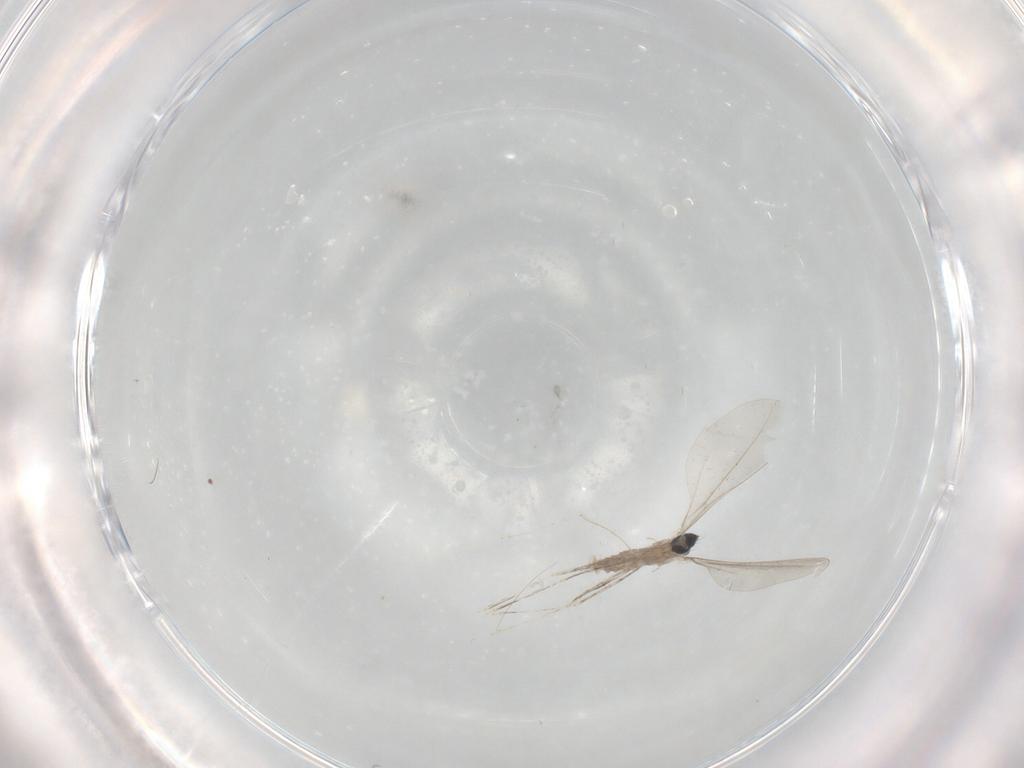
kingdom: Animalia
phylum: Arthropoda
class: Insecta
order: Diptera
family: Cecidomyiidae
